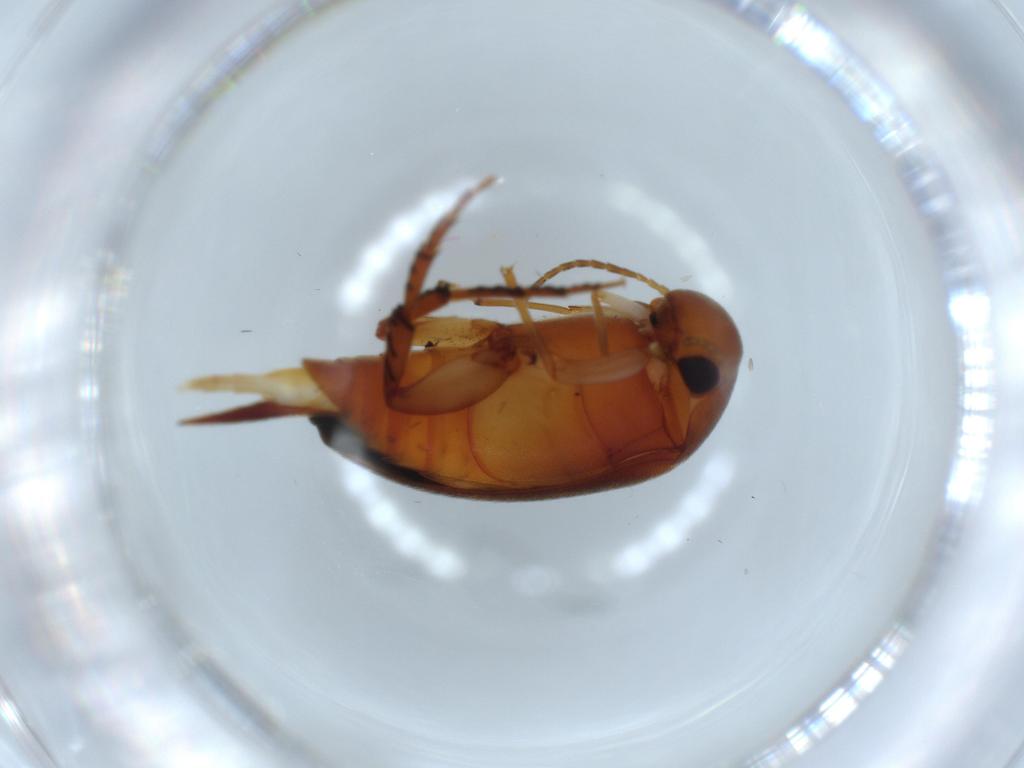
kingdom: Animalia
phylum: Arthropoda
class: Insecta
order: Coleoptera
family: Mordellidae
